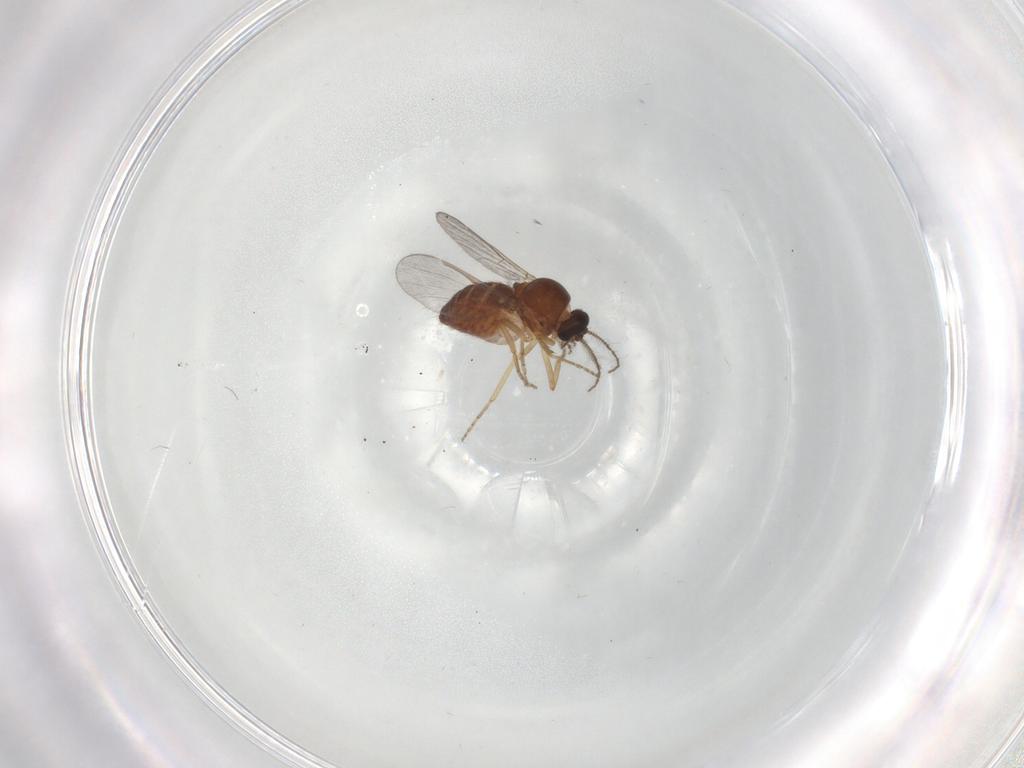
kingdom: Animalia
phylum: Arthropoda
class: Insecta
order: Diptera
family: Ceratopogonidae
